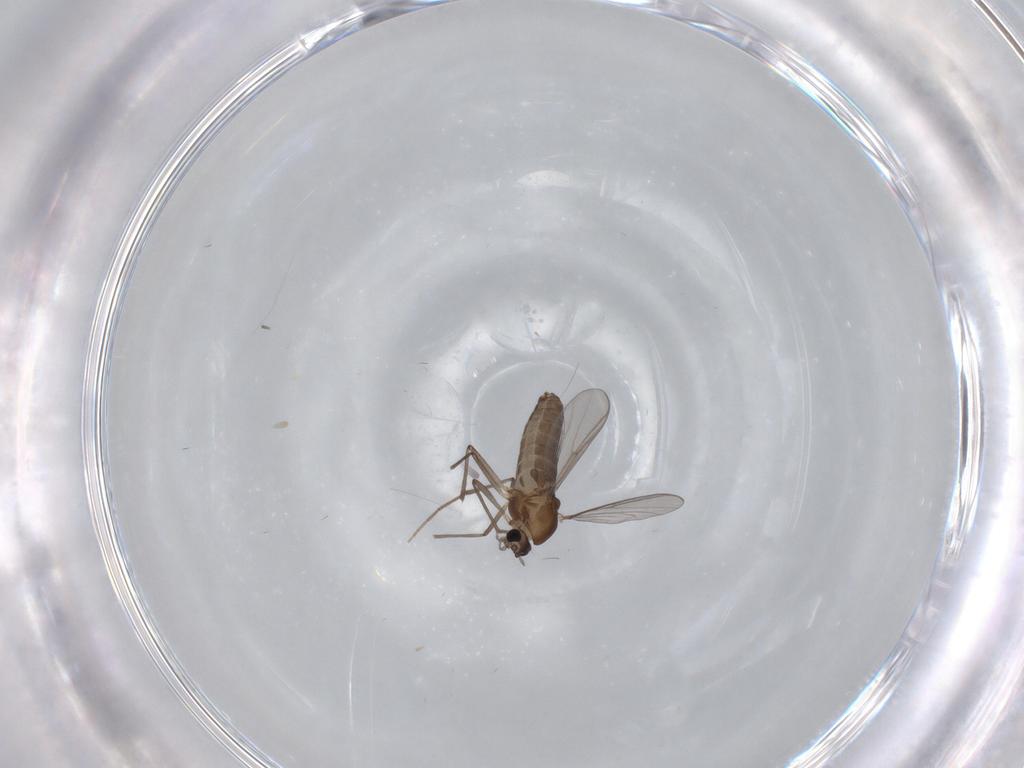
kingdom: Animalia
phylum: Arthropoda
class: Insecta
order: Diptera
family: Chironomidae
